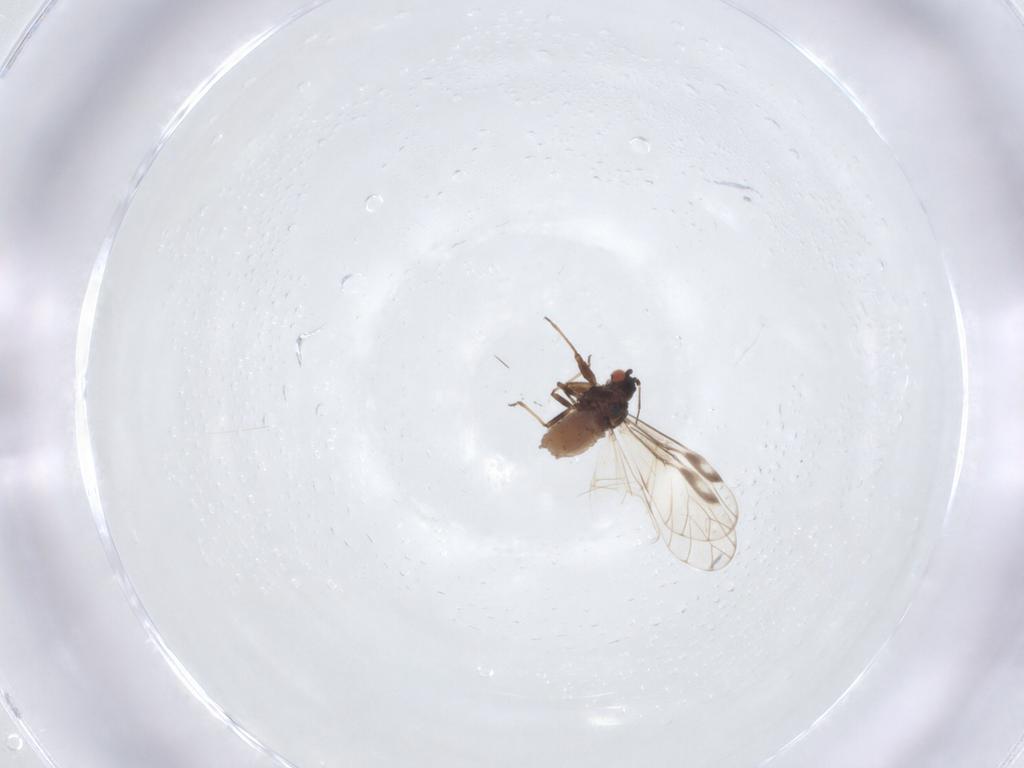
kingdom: Animalia
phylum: Arthropoda
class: Insecta
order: Hemiptera
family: Aphididae
